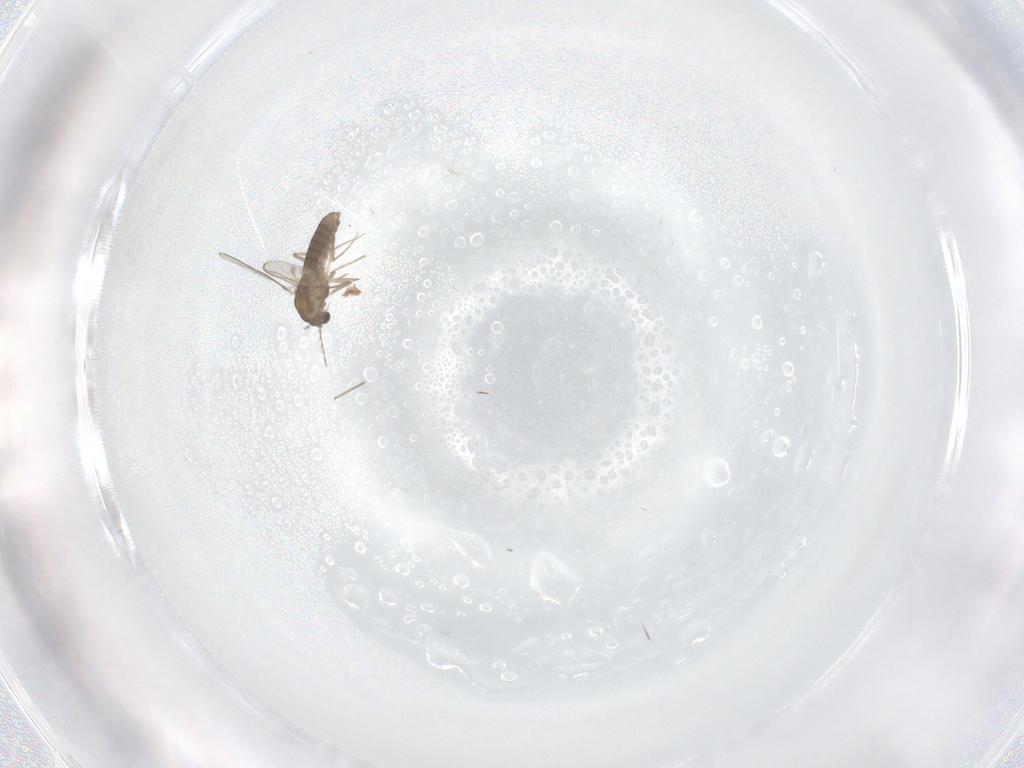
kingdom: Animalia
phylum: Arthropoda
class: Insecta
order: Diptera
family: Chironomidae
